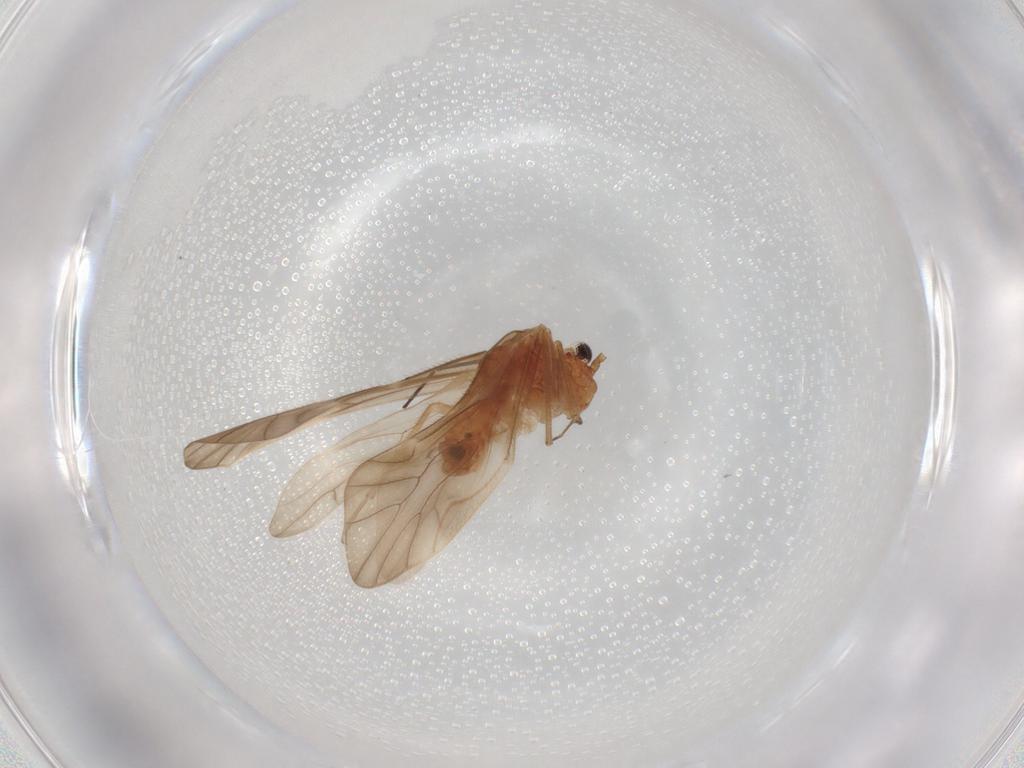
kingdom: Animalia
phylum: Arthropoda
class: Insecta
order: Psocodea
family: Caeciliusidae
